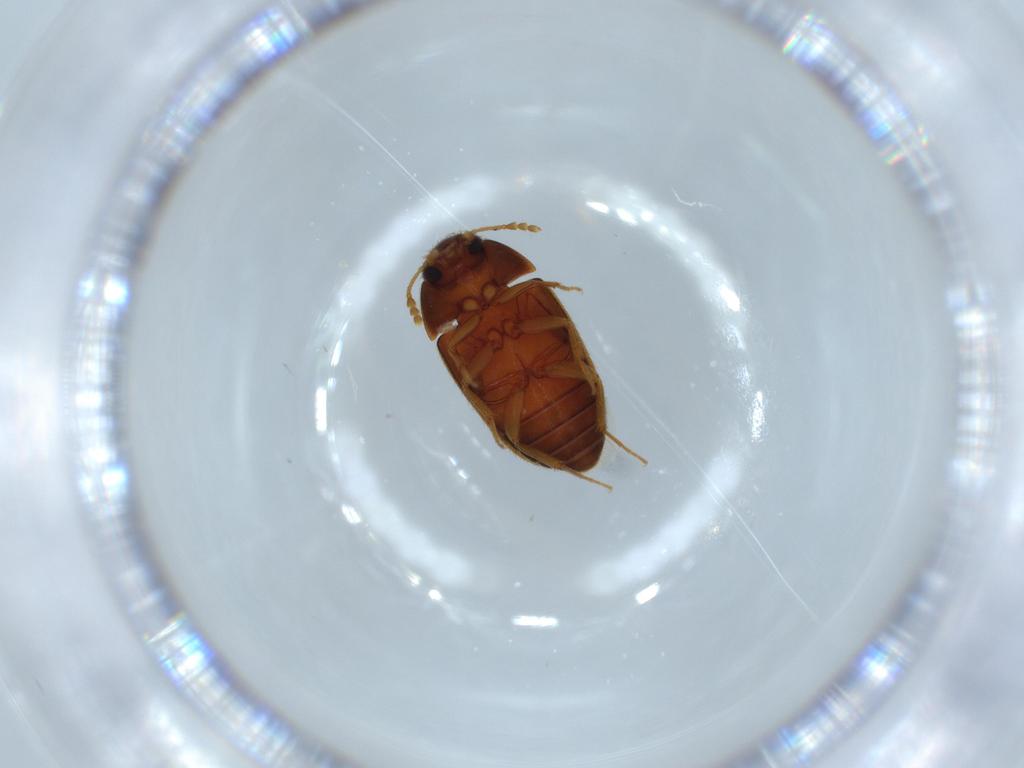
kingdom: Animalia
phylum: Arthropoda
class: Insecta
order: Coleoptera
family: Mycetophagidae
